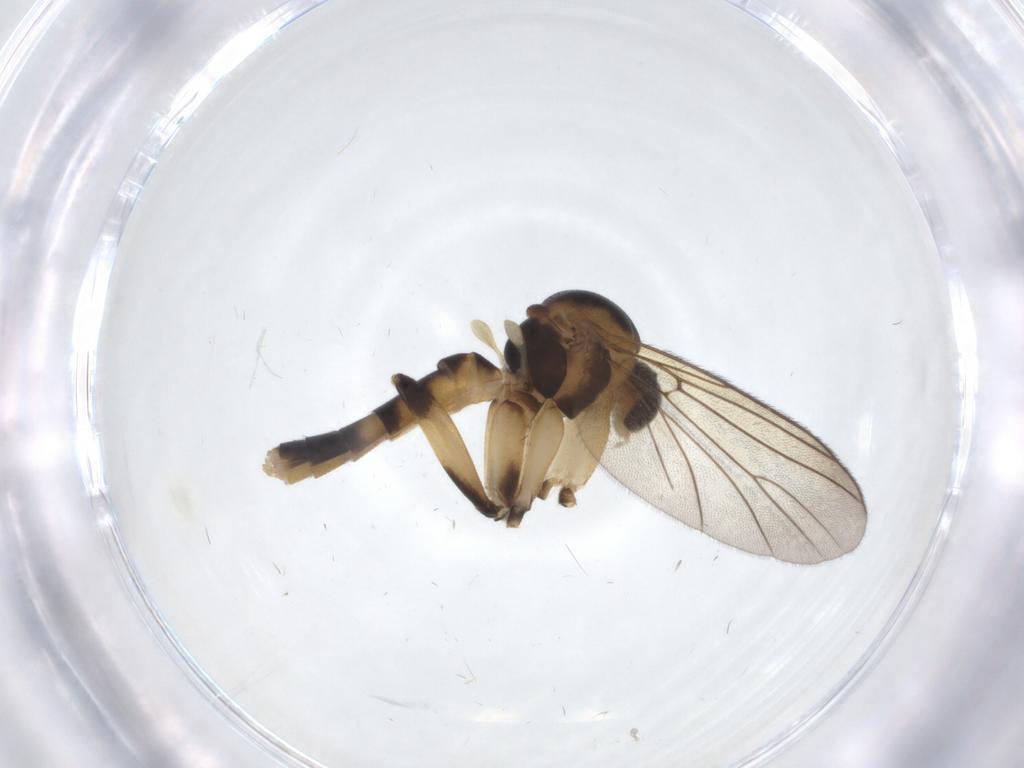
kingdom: Animalia
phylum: Arthropoda
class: Insecta
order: Diptera
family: Mycetophilidae
